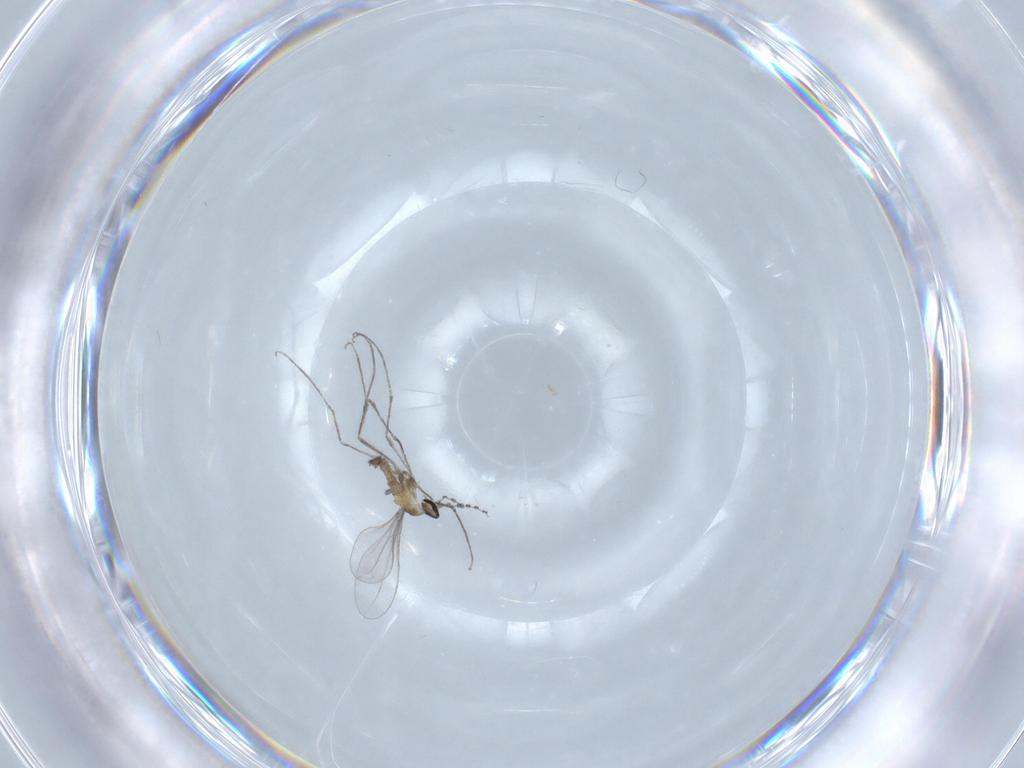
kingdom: Animalia
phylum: Arthropoda
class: Insecta
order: Diptera
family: Cecidomyiidae
